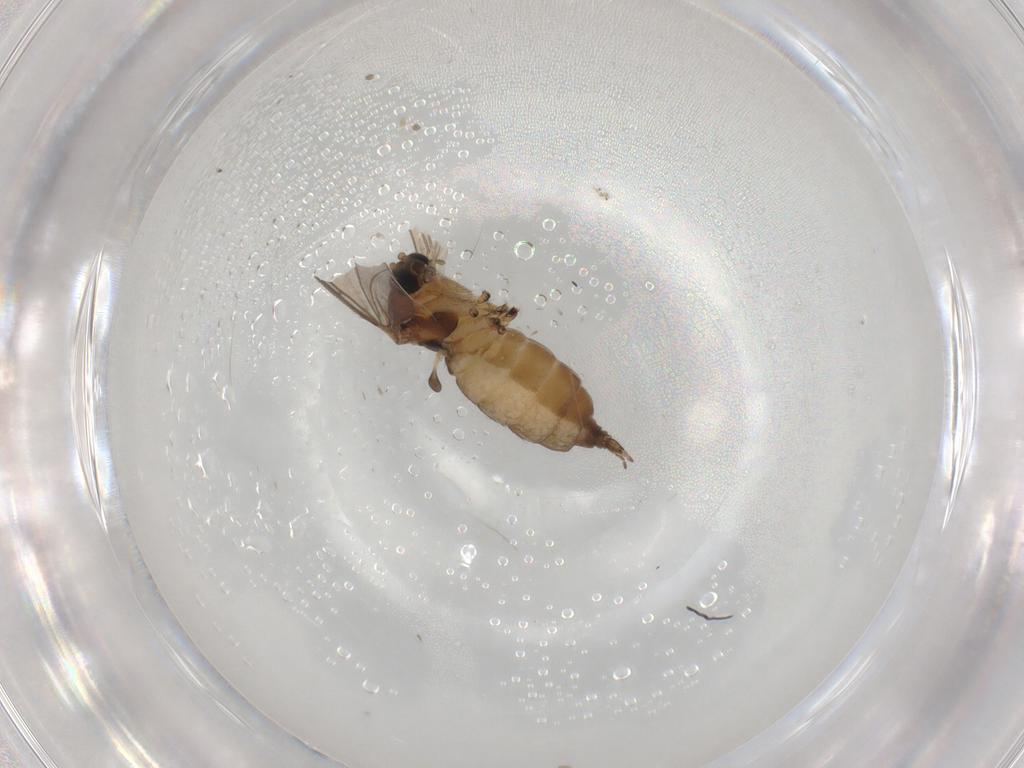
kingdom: Animalia
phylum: Arthropoda
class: Insecta
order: Diptera
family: Sciaridae
